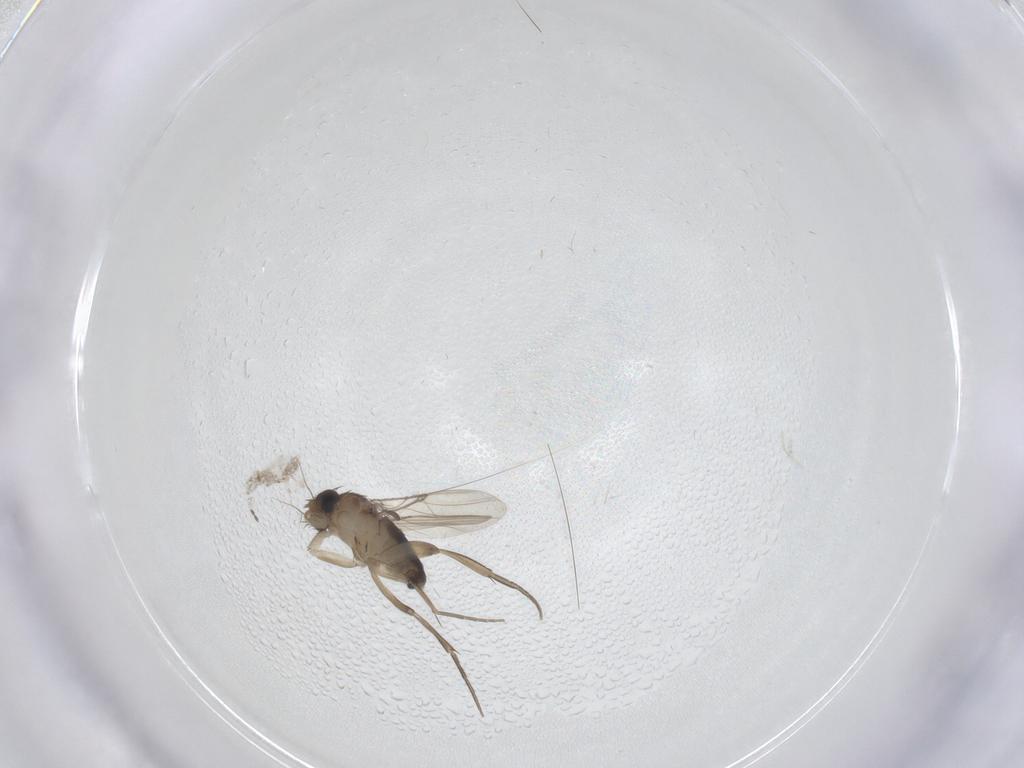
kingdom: Animalia
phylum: Arthropoda
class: Insecta
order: Diptera
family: Phoridae
